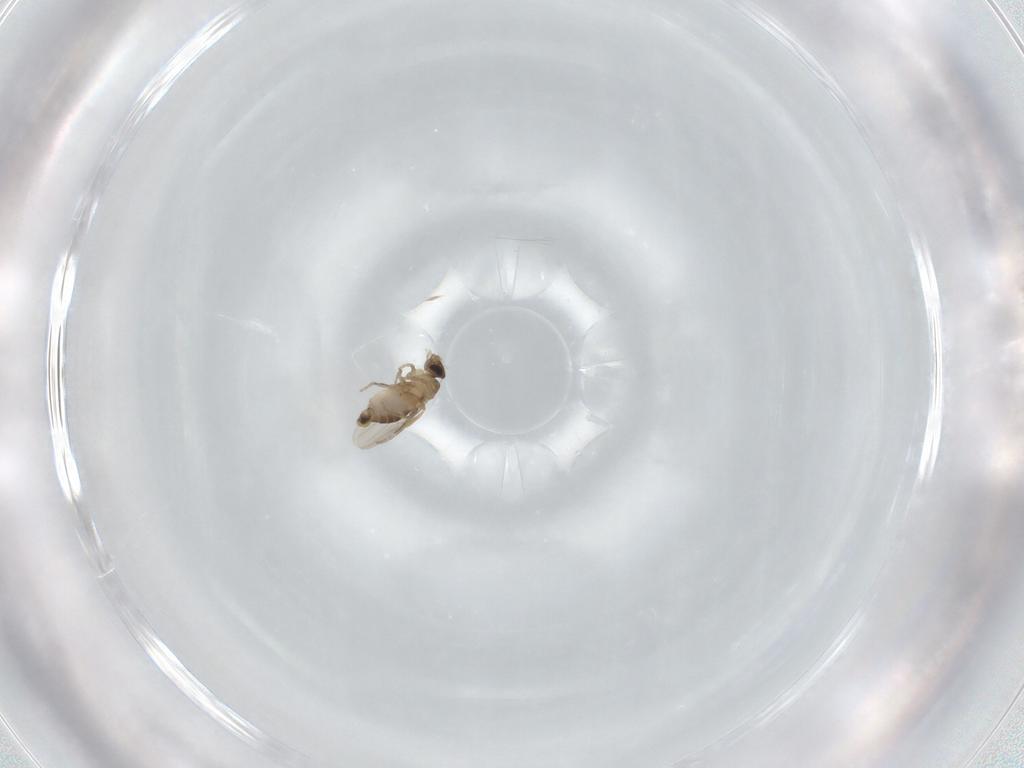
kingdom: Animalia
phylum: Arthropoda
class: Insecta
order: Diptera
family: Phoridae
